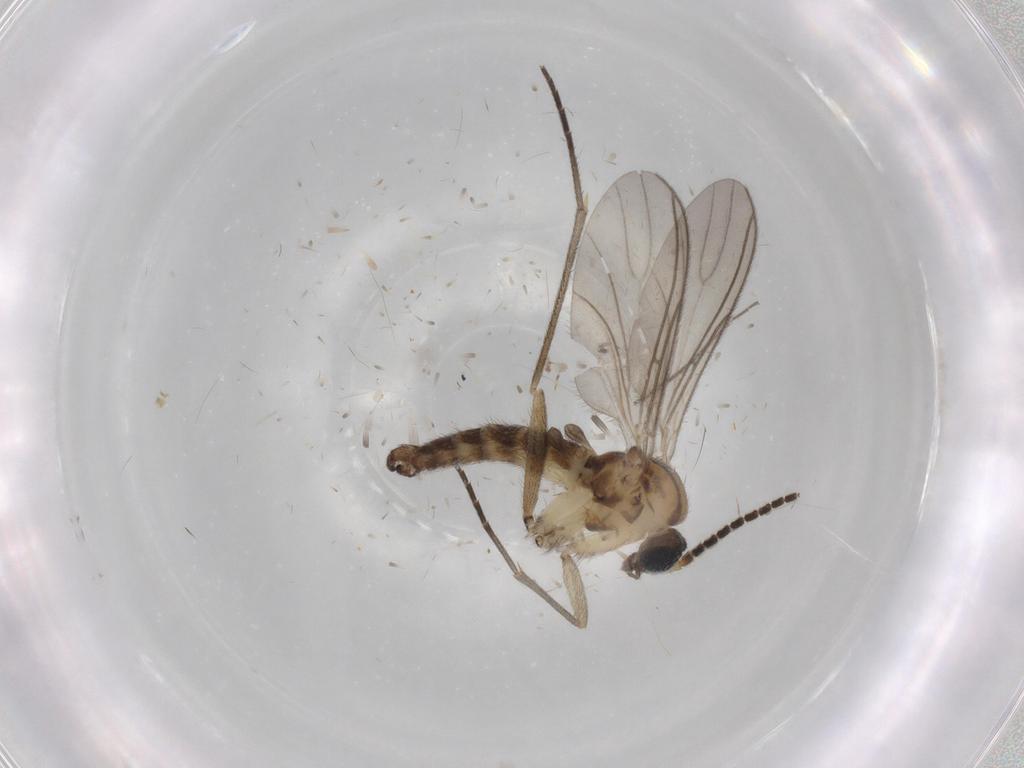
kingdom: Animalia
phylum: Arthropoda
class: Insecta
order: Diptera
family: Sciaridae
